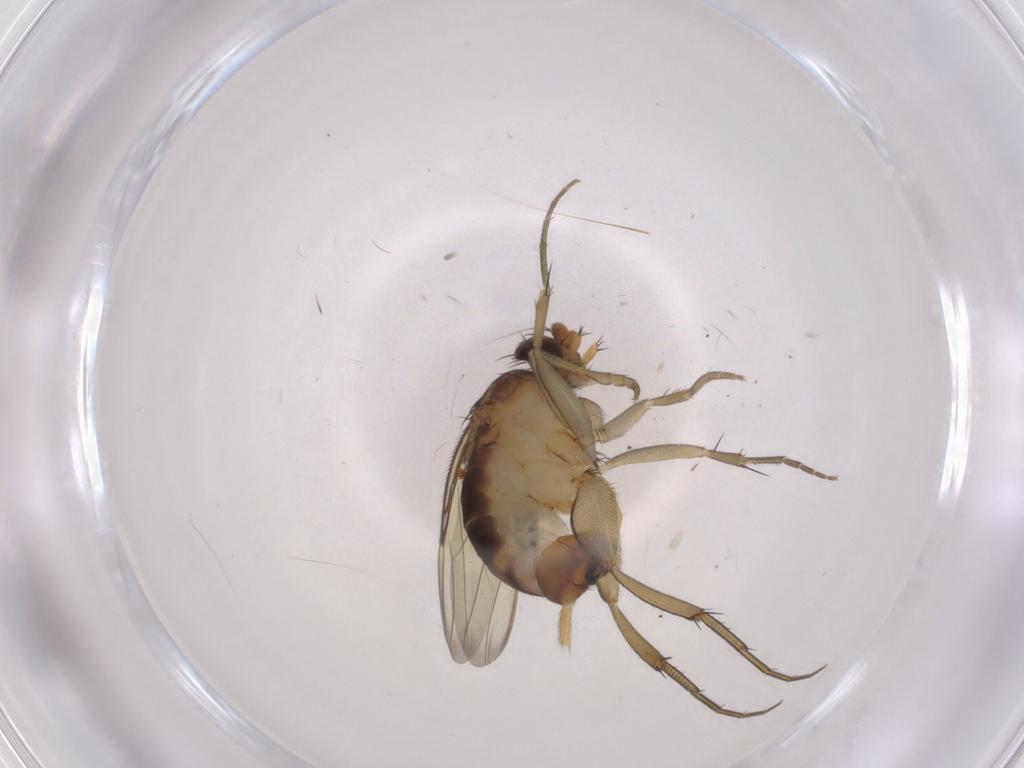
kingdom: Animalia
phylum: Arthropoda
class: Insecta
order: Diptera
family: Phoridae
